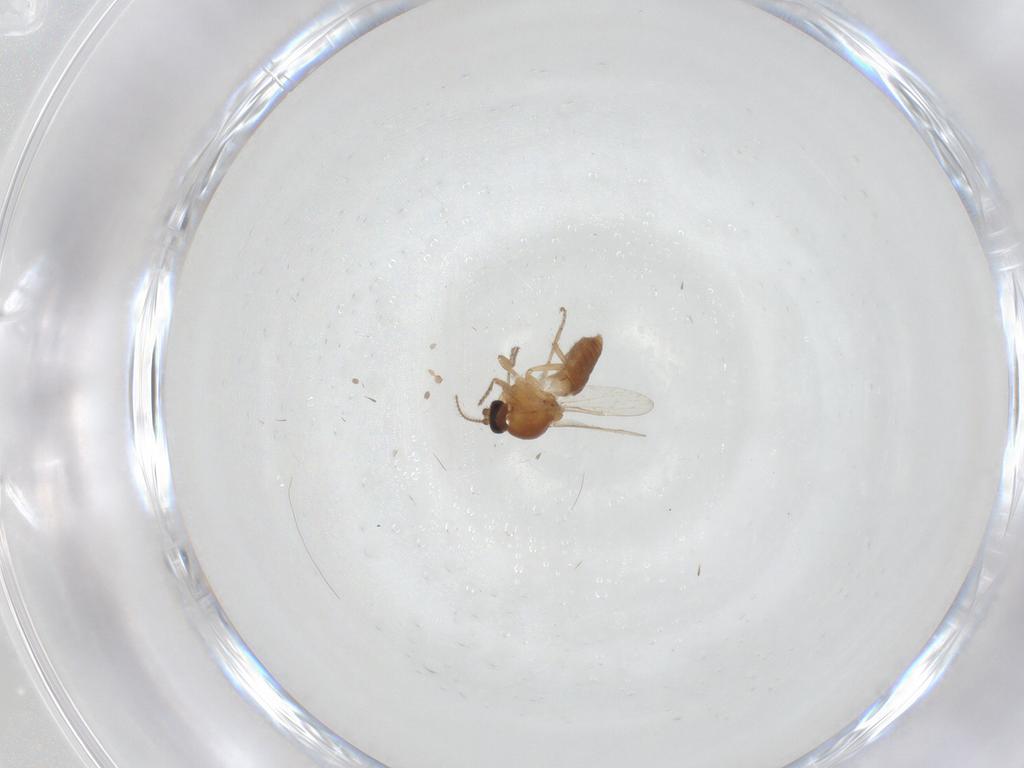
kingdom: Animalia
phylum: Arthropoda
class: Insecta
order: Diptera
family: Ceratopogonidae
